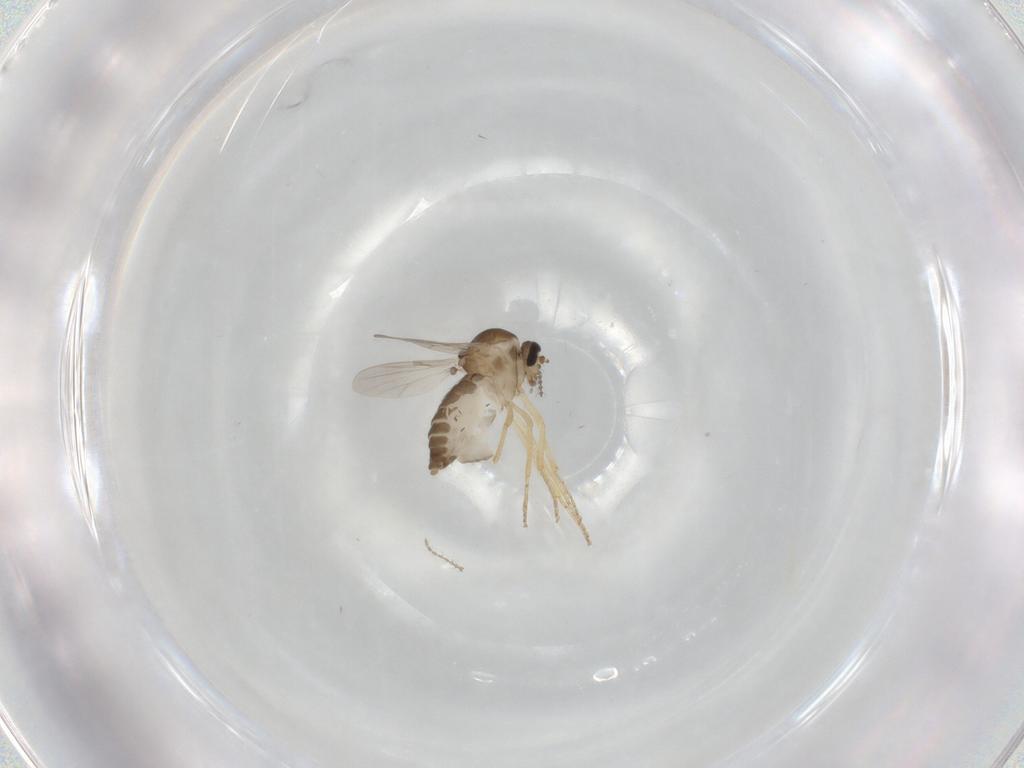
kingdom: Animalia
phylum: Arthropoda
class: Insecta
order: Diptera
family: Ceratopogonidae
